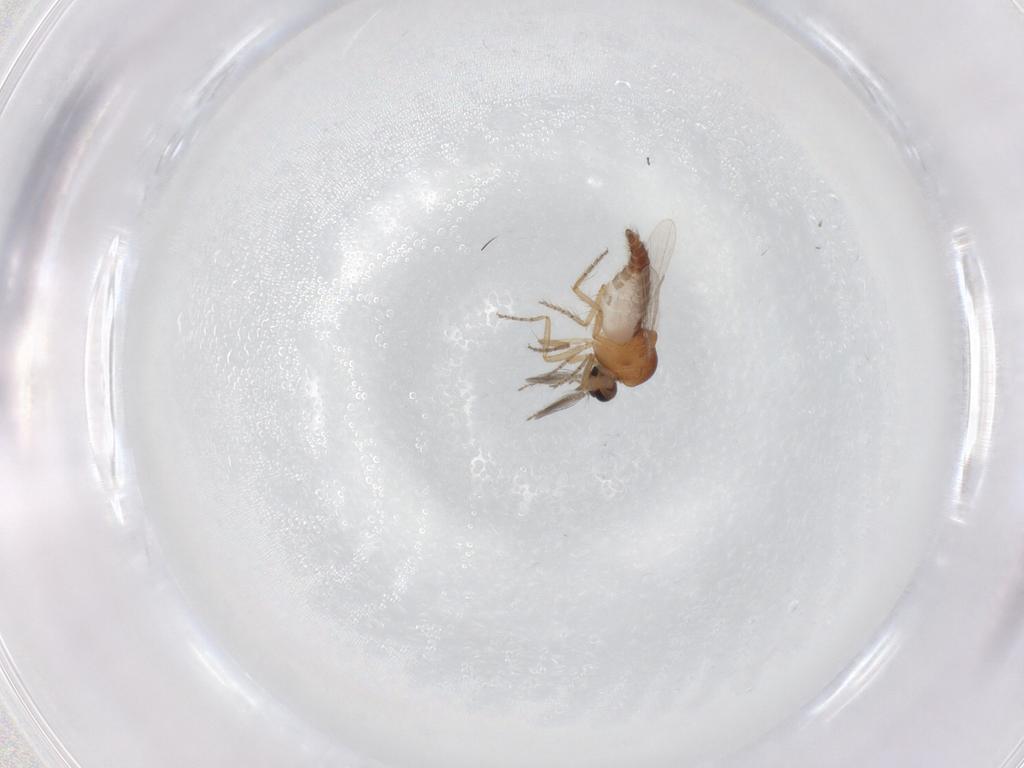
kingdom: Animalia
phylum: Arthropoda
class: Insecta
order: Diptera
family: Ceratopogonidae
